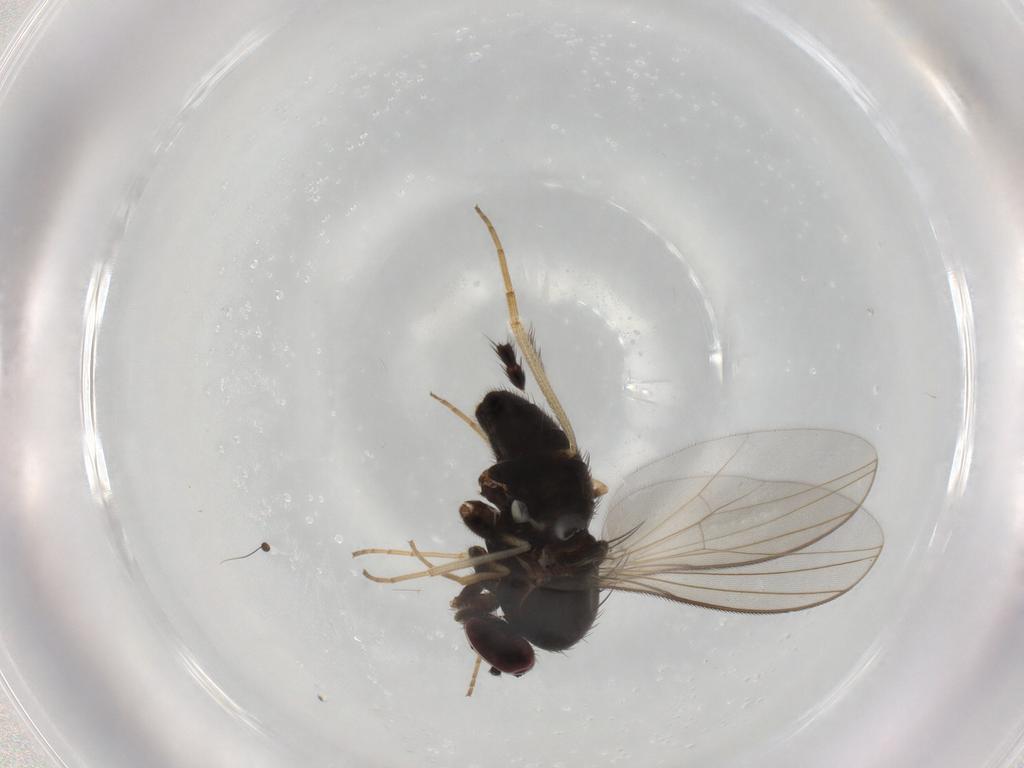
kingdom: Animalia
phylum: Arthropoda
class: Insecta
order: Diptera
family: Dolichopodidae
